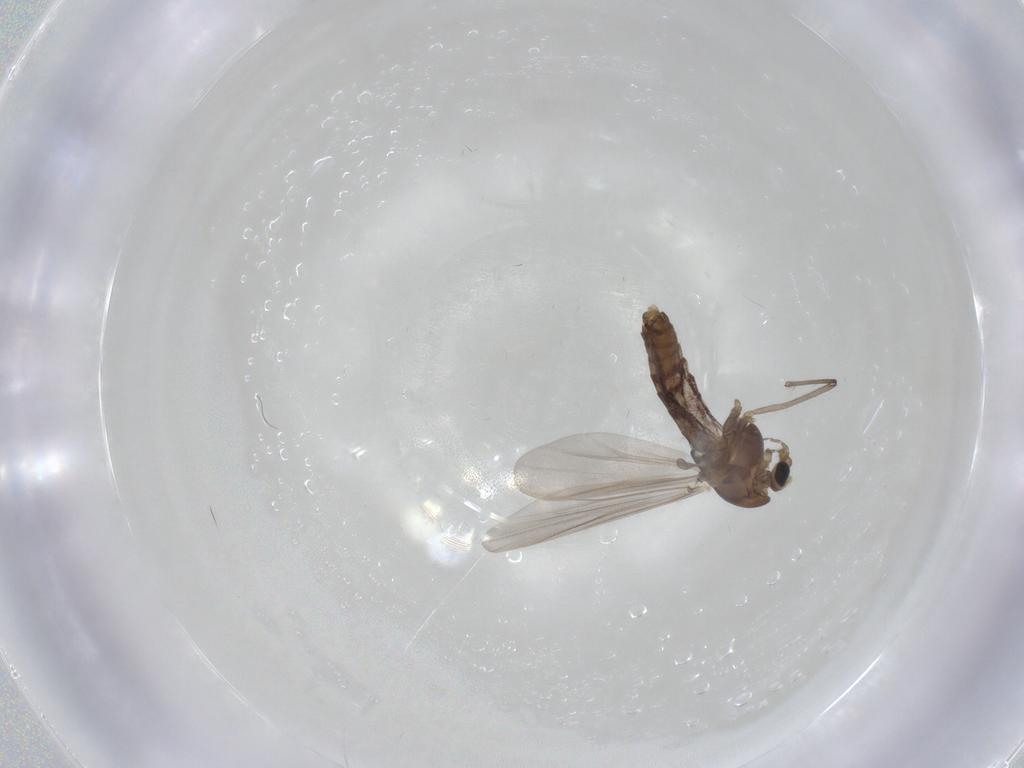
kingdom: Animalia
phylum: Arthropoda
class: Insecta
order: Diptera
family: Chironomidae
